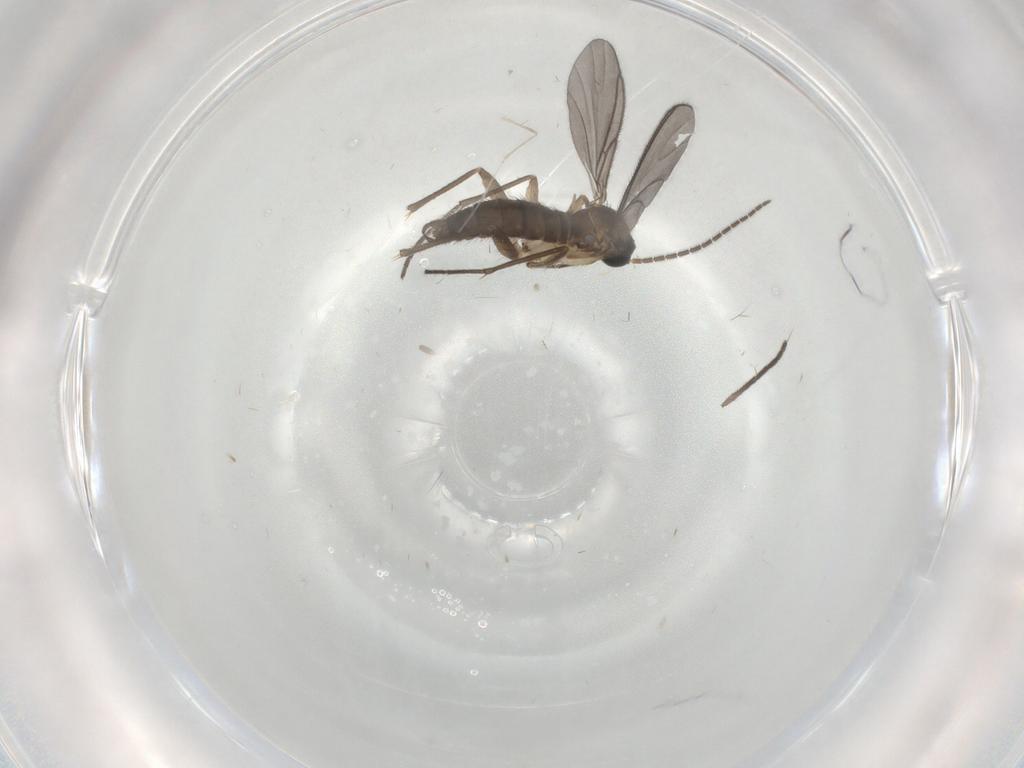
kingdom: Animalia
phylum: Arthropoda
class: Insecta
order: Diptera
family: Sciaridae
